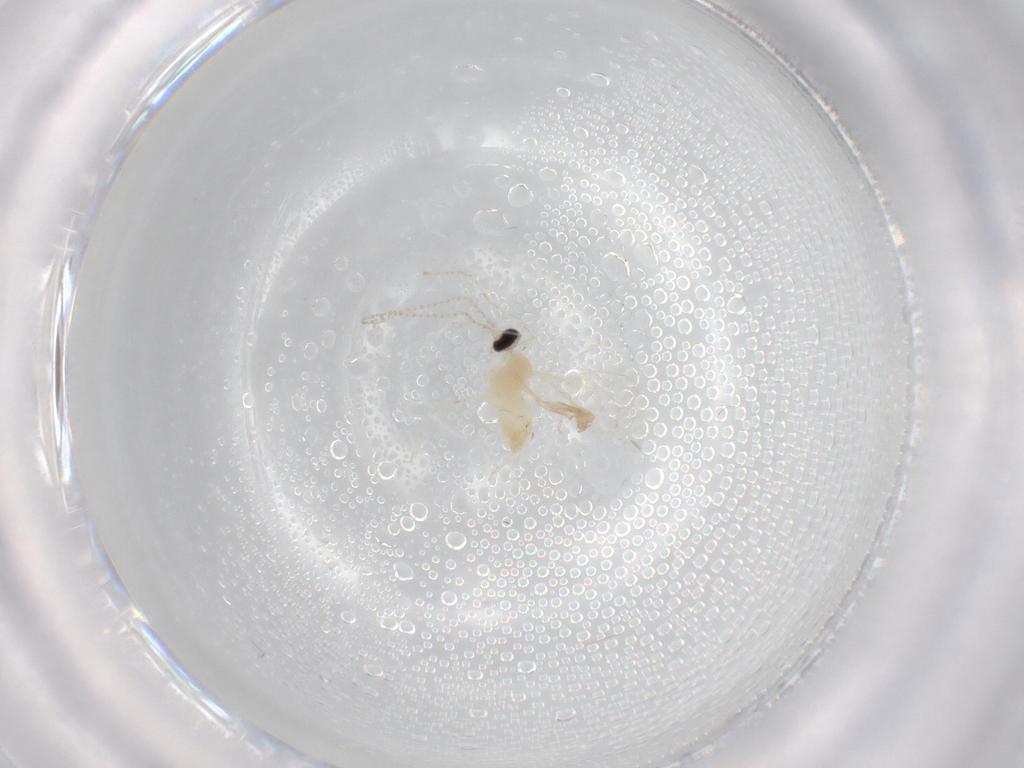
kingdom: Animalia
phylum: Arthropoda
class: Insecta
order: Diptera
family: Cecidomyiidae
